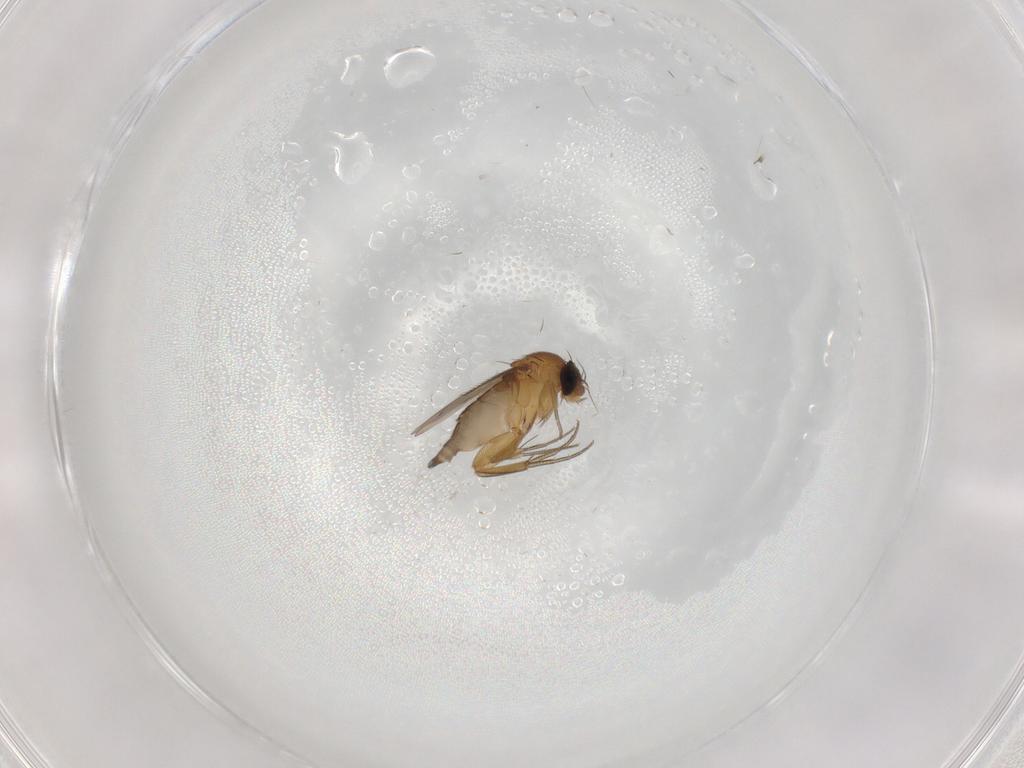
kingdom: Animalia
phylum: Arthropoda
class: Insecta
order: Diptera
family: Phoridae
